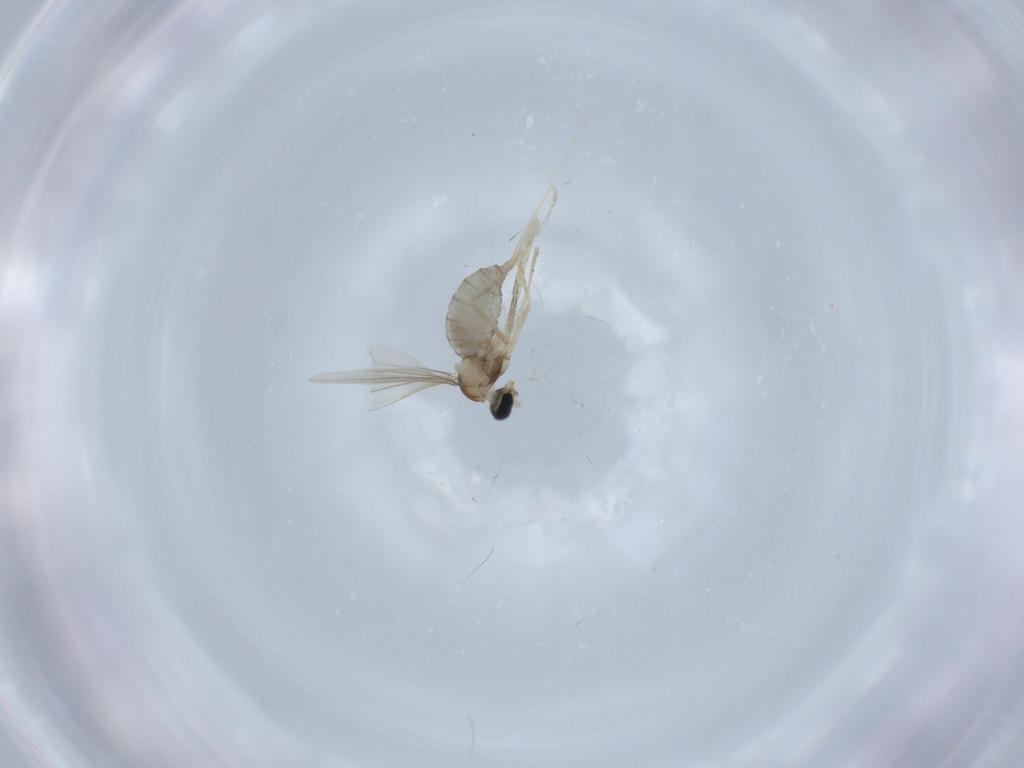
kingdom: Animalia
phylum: Arthropoda
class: Insecta
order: Diptera
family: Cecidomyiidae
